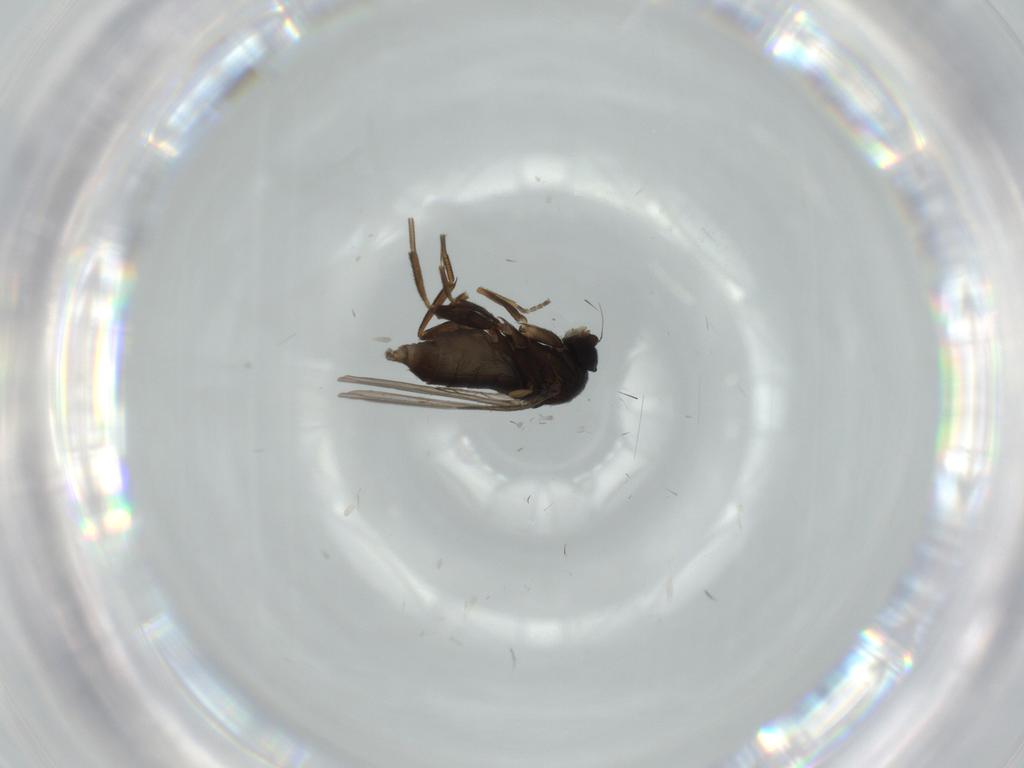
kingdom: Animalia
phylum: Arthropoda
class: Insecta
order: Diptera
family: Phoridae
